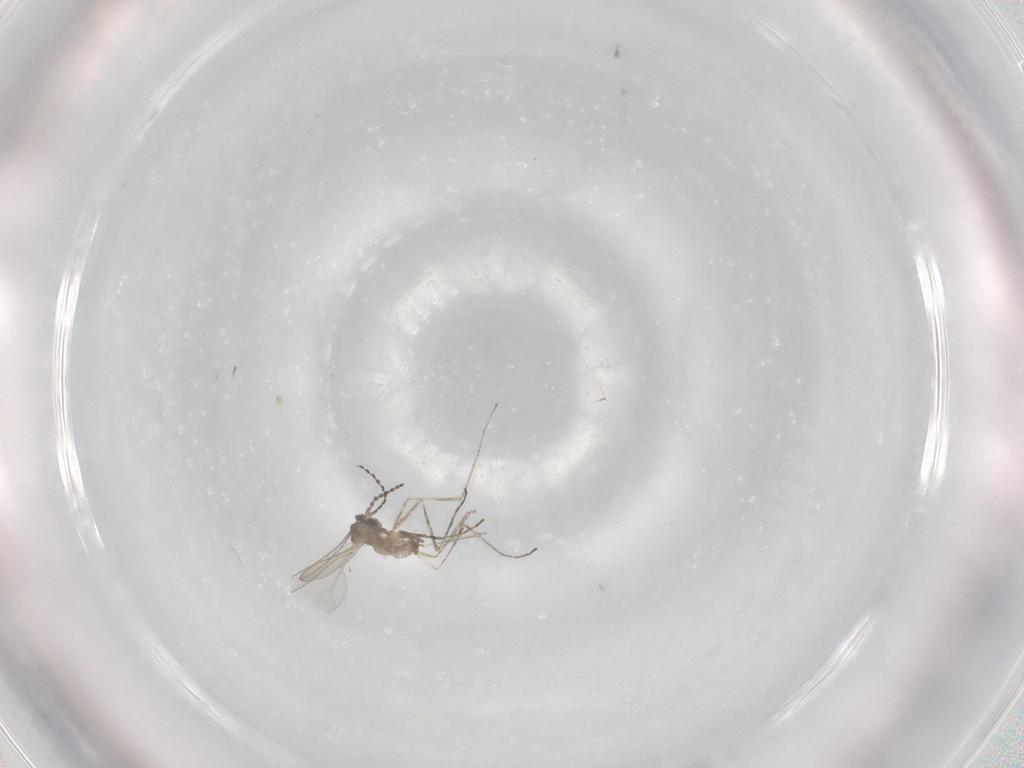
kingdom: Animalia
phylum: Arthropoda
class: Insecta
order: Diptera
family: Cecidomyiidae
